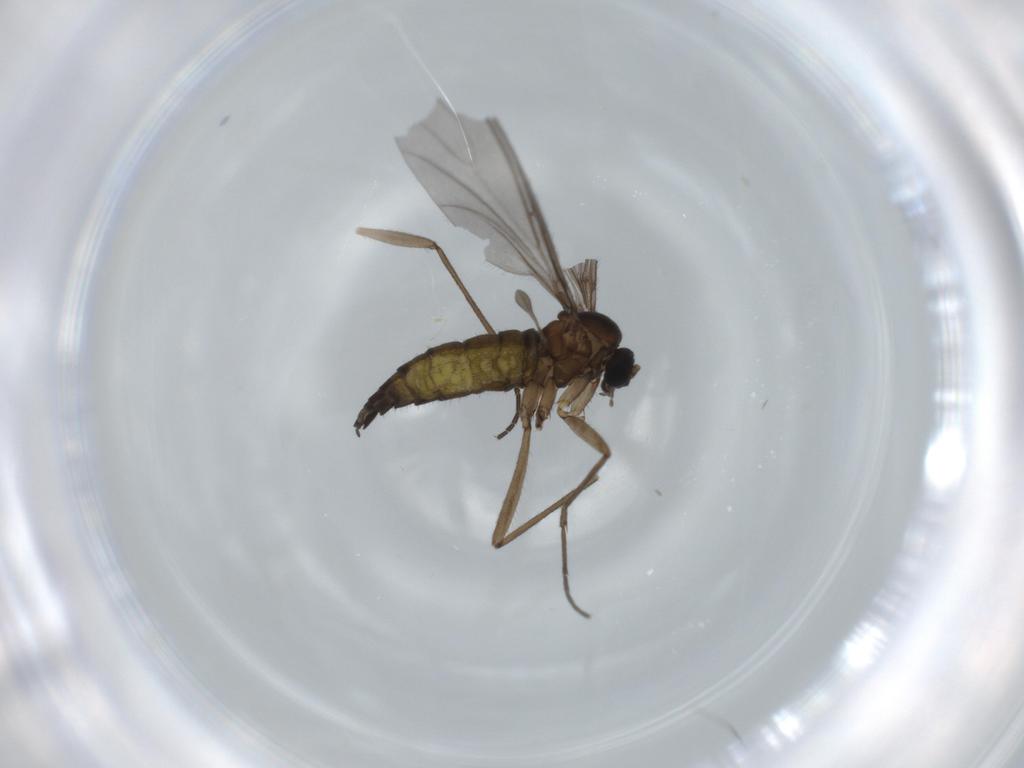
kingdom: Animalia
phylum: Arthropoda
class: Insecta
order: Diptera
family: Sciaridae
